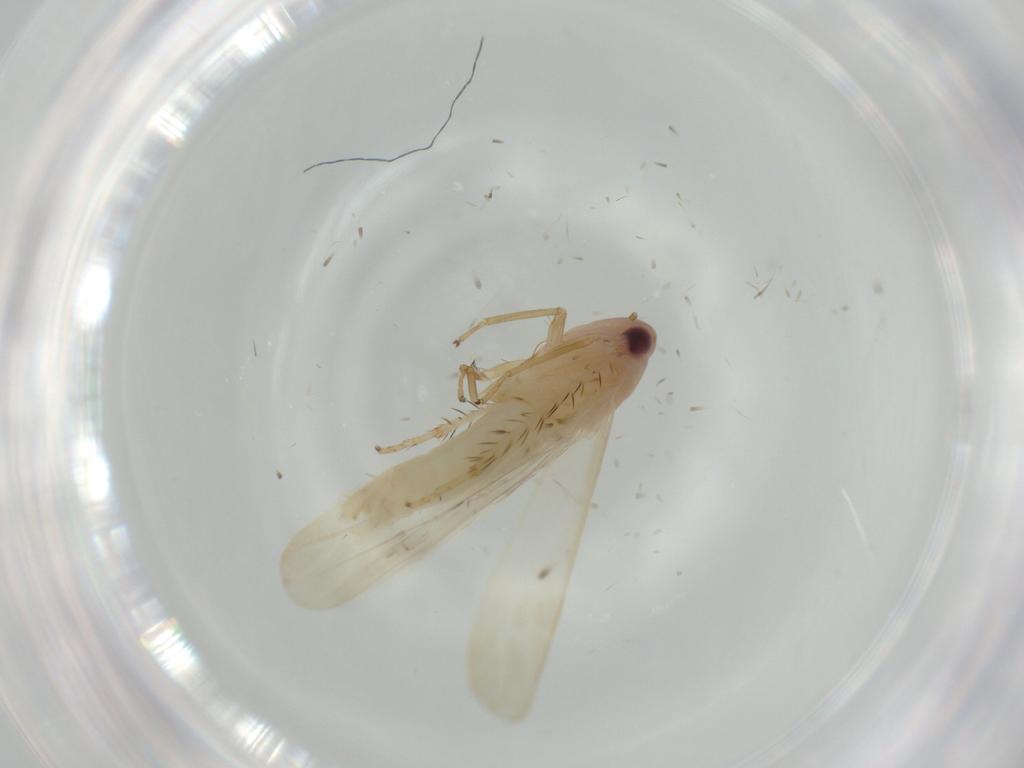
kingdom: Animalia
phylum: Arthropoda
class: Insecta
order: Hemiptera
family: Cicadellidae
